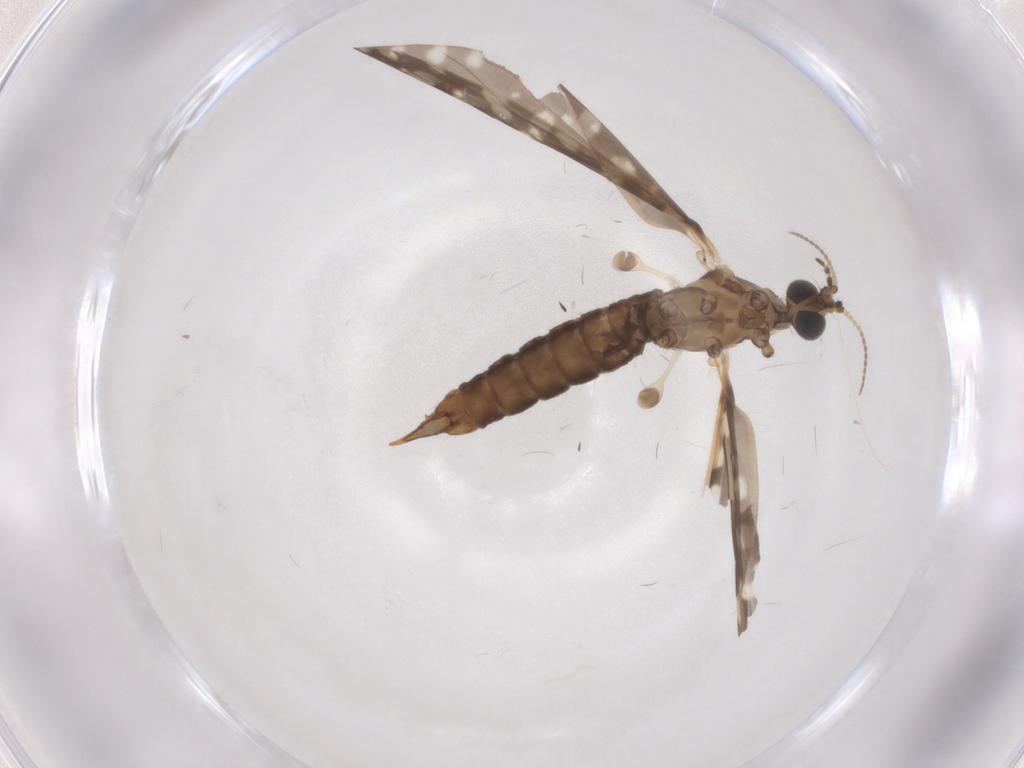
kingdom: Animalia
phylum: Arthropoda
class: Insecta
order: Diptera
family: Limoniidae
